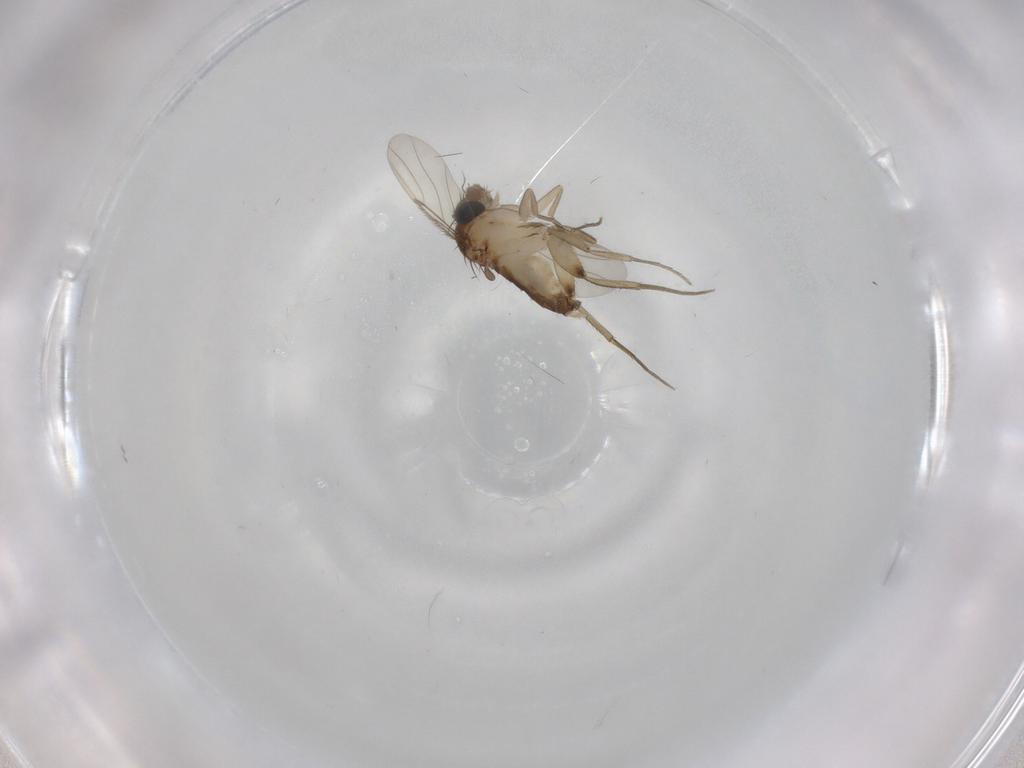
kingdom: Animalia
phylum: Arthropoda
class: Insecta
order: Diptera
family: Phoridae
